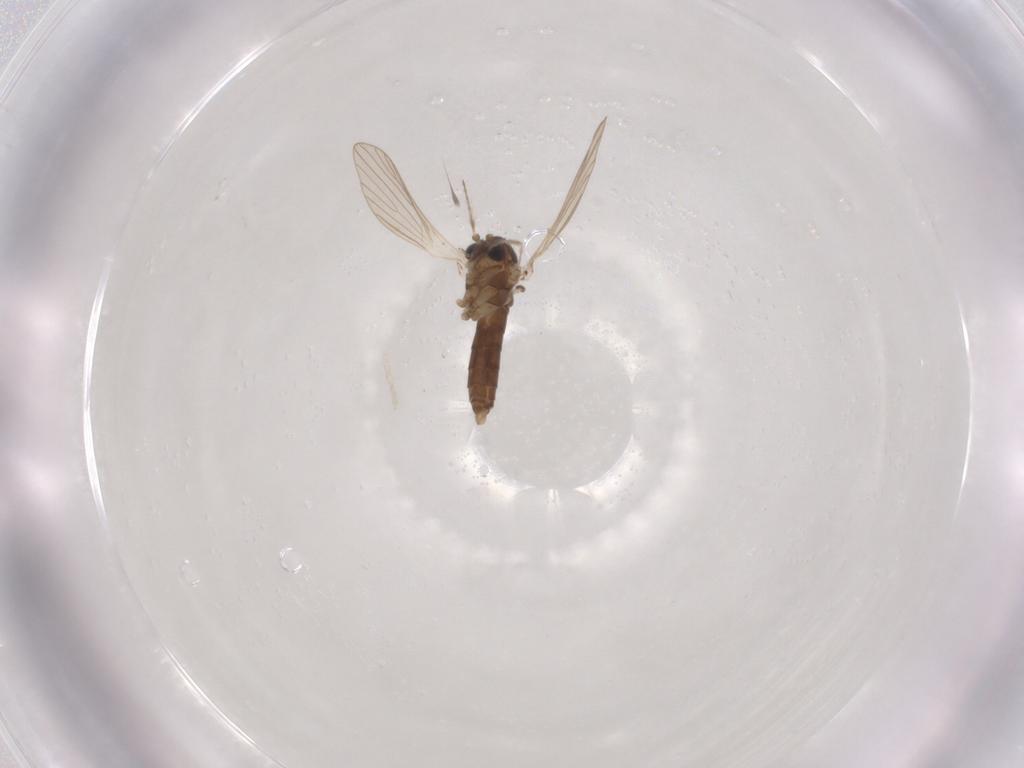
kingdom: Animalia
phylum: Arthropoda
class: Insecta
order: Diptera
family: Psychodidae
